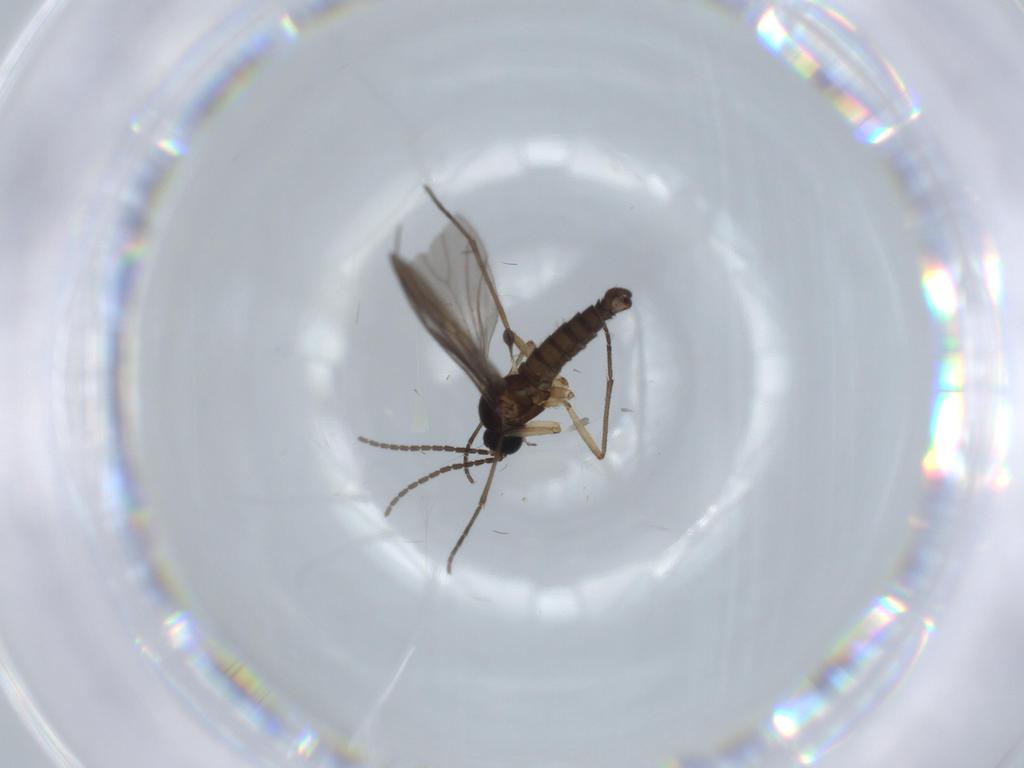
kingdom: Animalia
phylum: Arthropoda
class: Insecta
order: Diptera
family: Sciaridae
